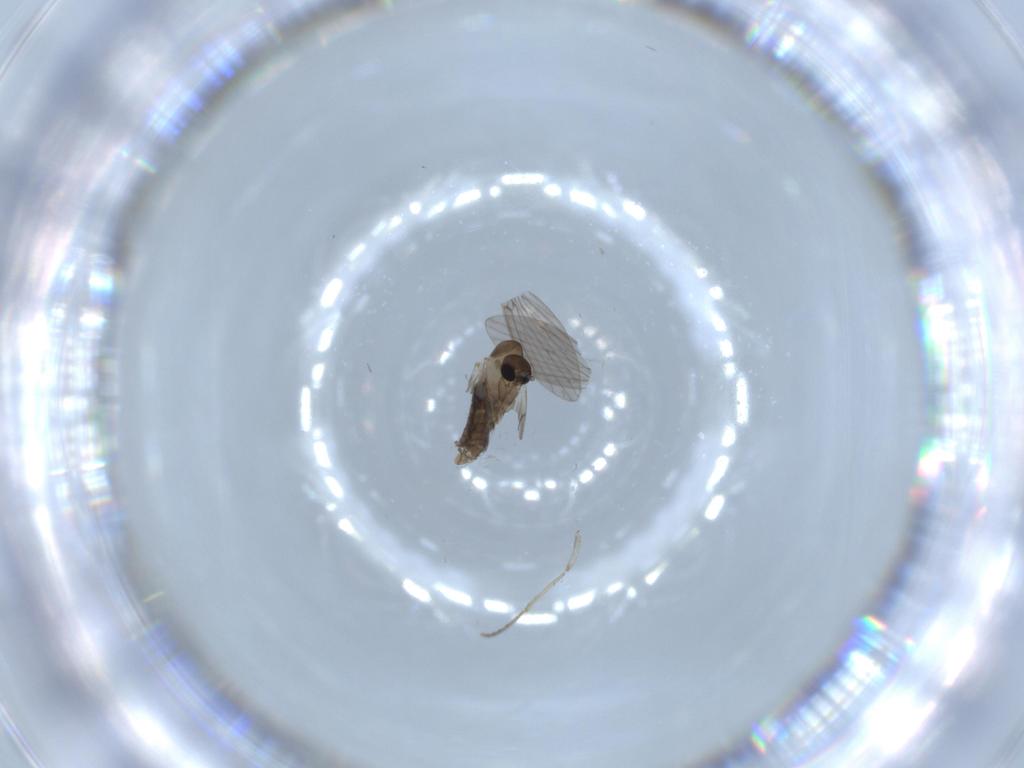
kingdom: Animalia
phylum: Arthropoda
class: Insecta
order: Diptera
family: Psychodidae
